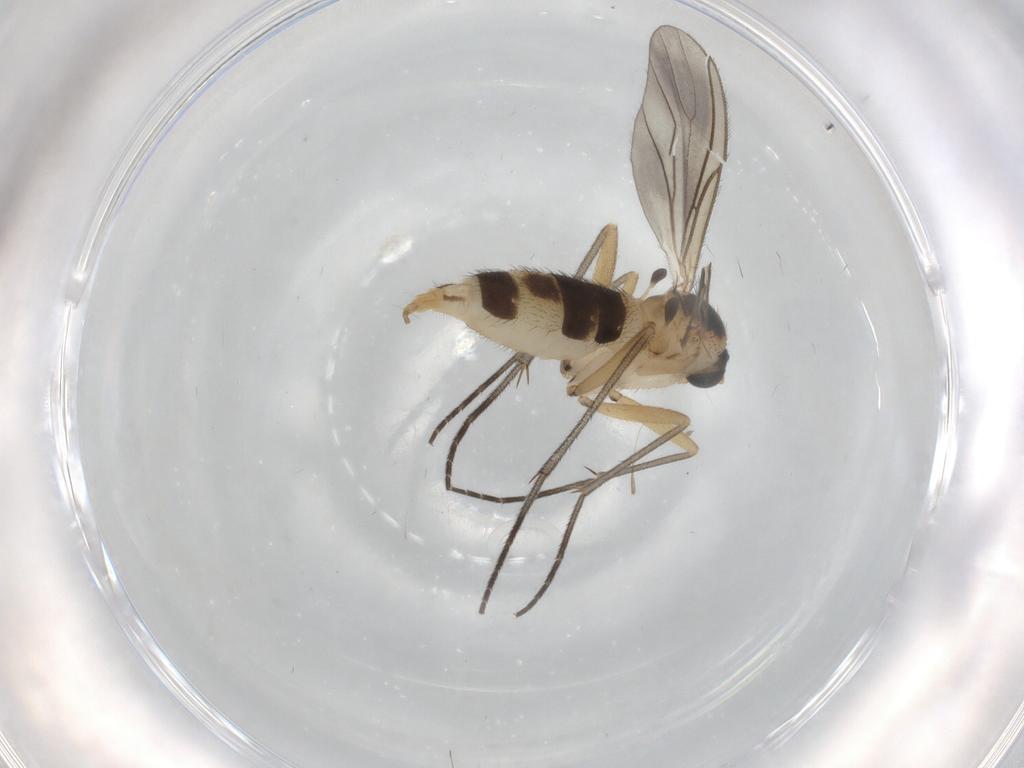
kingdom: Animalia
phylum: Arthropoda
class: Insecta
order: Diptera
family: Sciaridae
